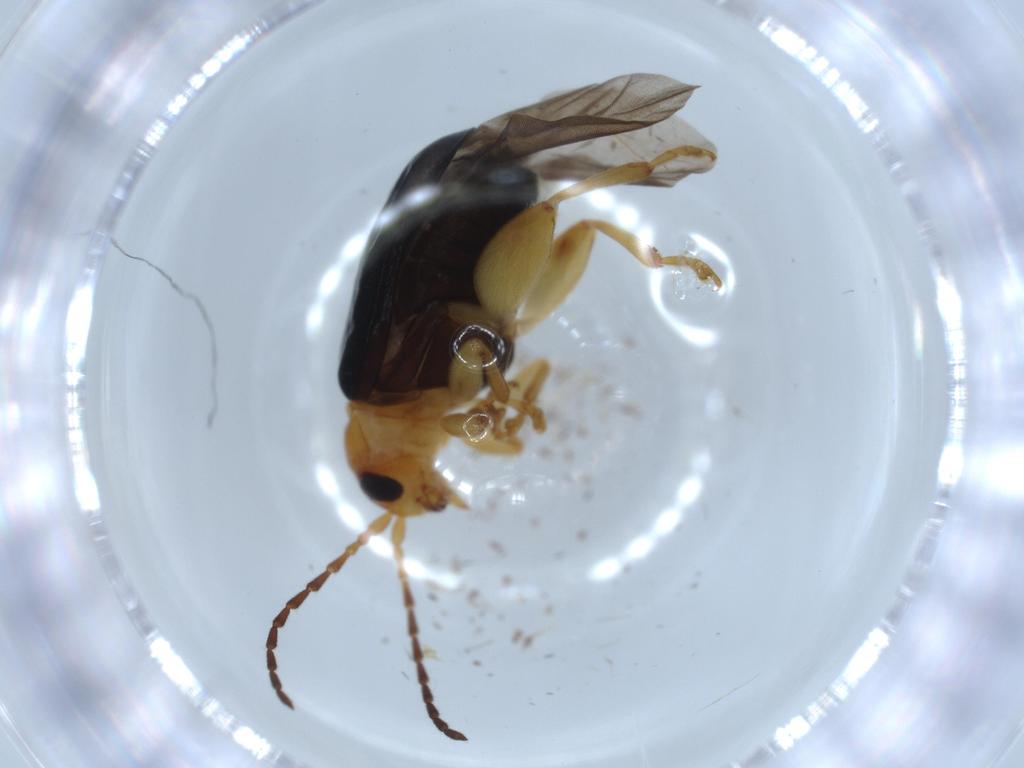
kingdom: Animalia
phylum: Arthropoda
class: Insecta
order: Coleoptera
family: Chrysomelidae
